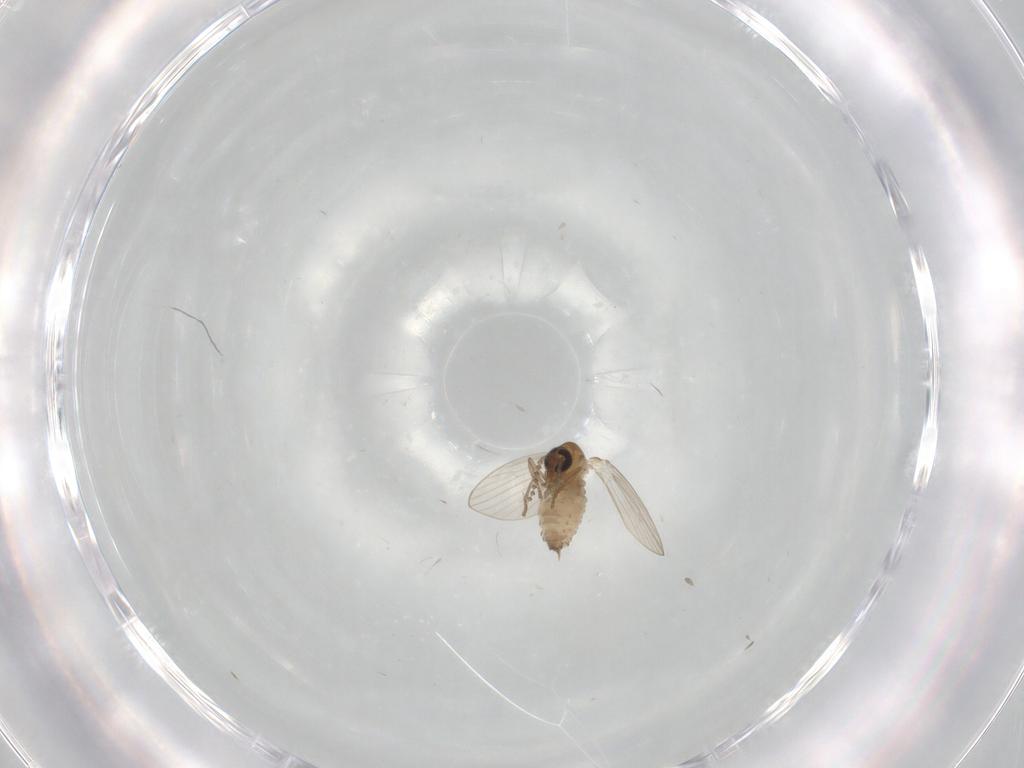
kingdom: Animalia
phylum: Arthropoda
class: Insecta
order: Diptera
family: Psychodidae
